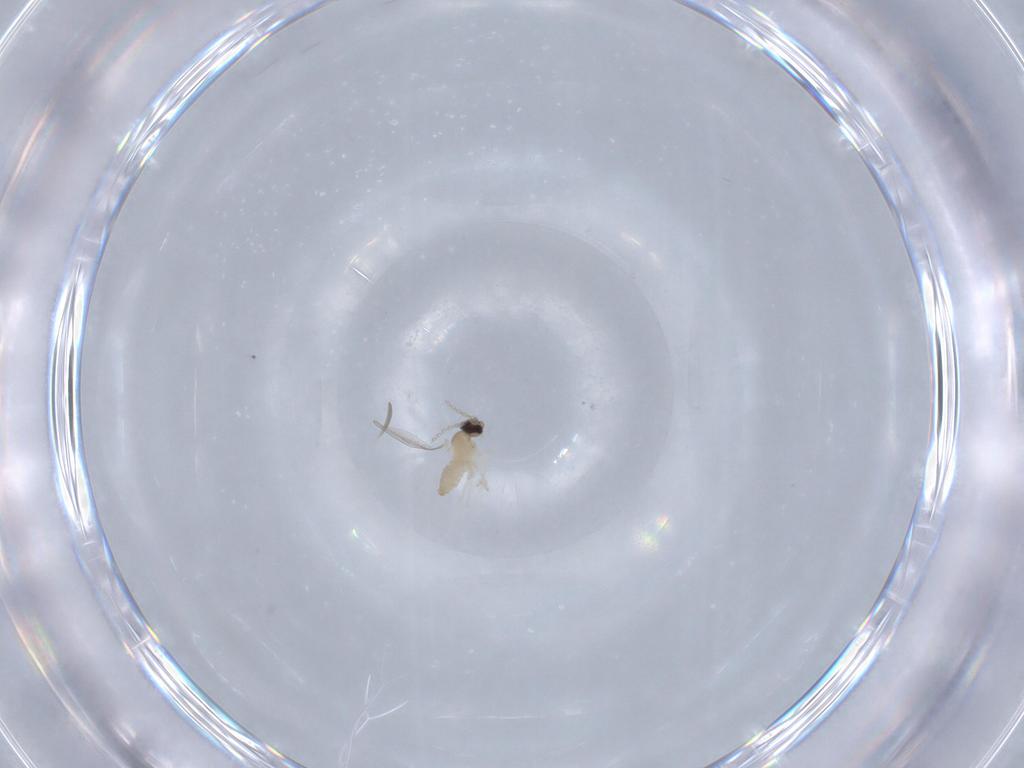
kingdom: Animalia
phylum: Arthropoda
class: Insecta
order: Diptera
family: Cecidomyiidae
